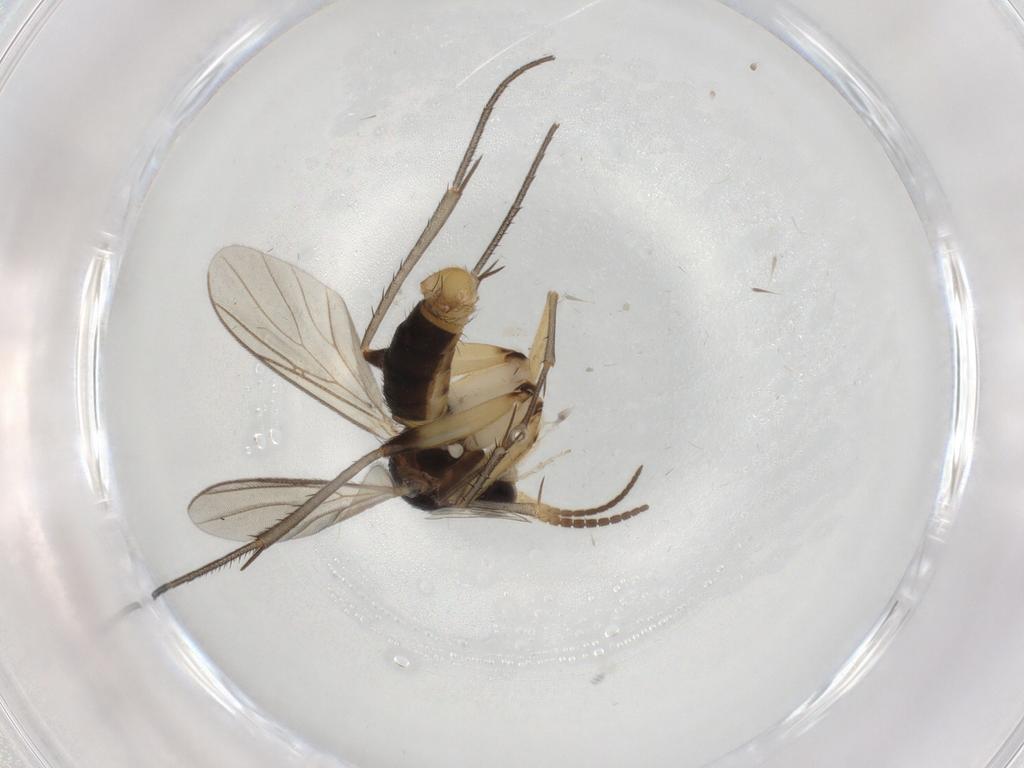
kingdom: Animalia
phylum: Arthropoda
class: Insecta
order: Diptera
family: Cecidomyiidae
